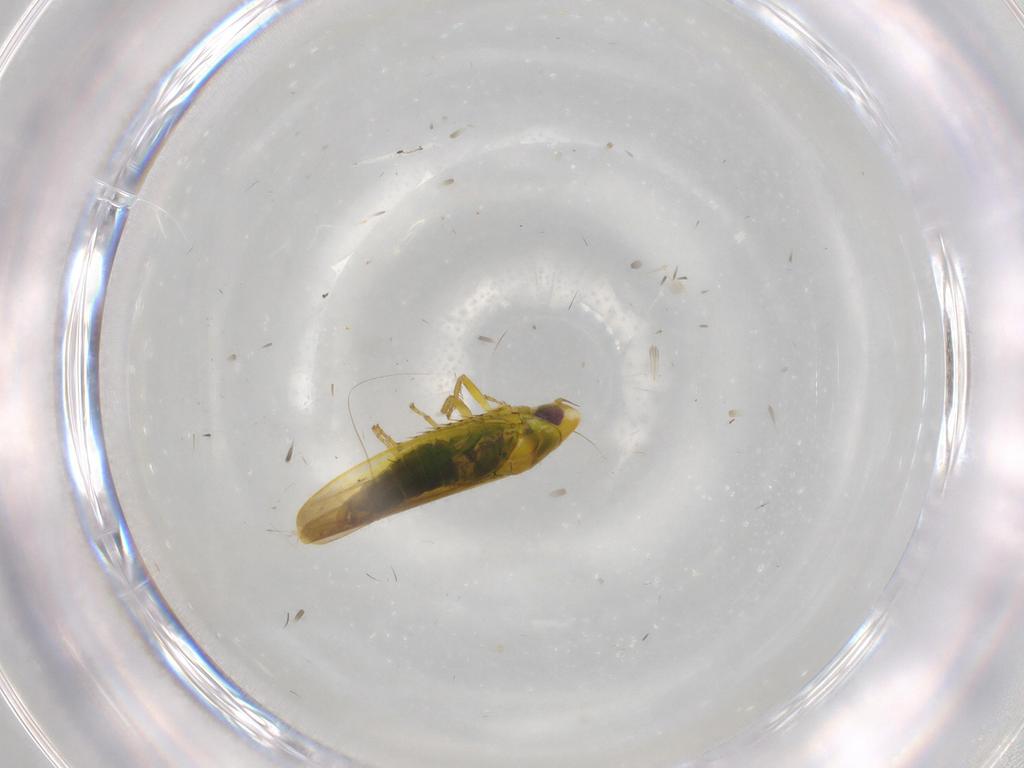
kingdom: Animalia
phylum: Arthropoda
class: Insecta
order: Hemiptera
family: Cicadellidae
